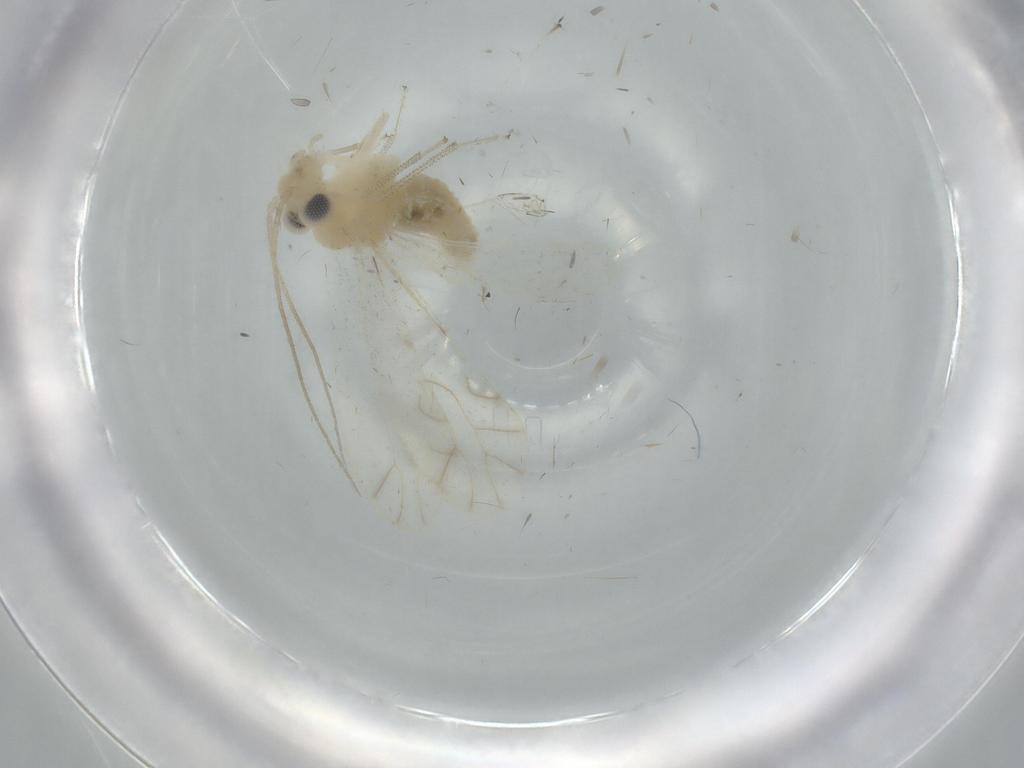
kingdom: Animalia
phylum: Arthropoda
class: Insecta
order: Psocodea
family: Caeciliusidae
